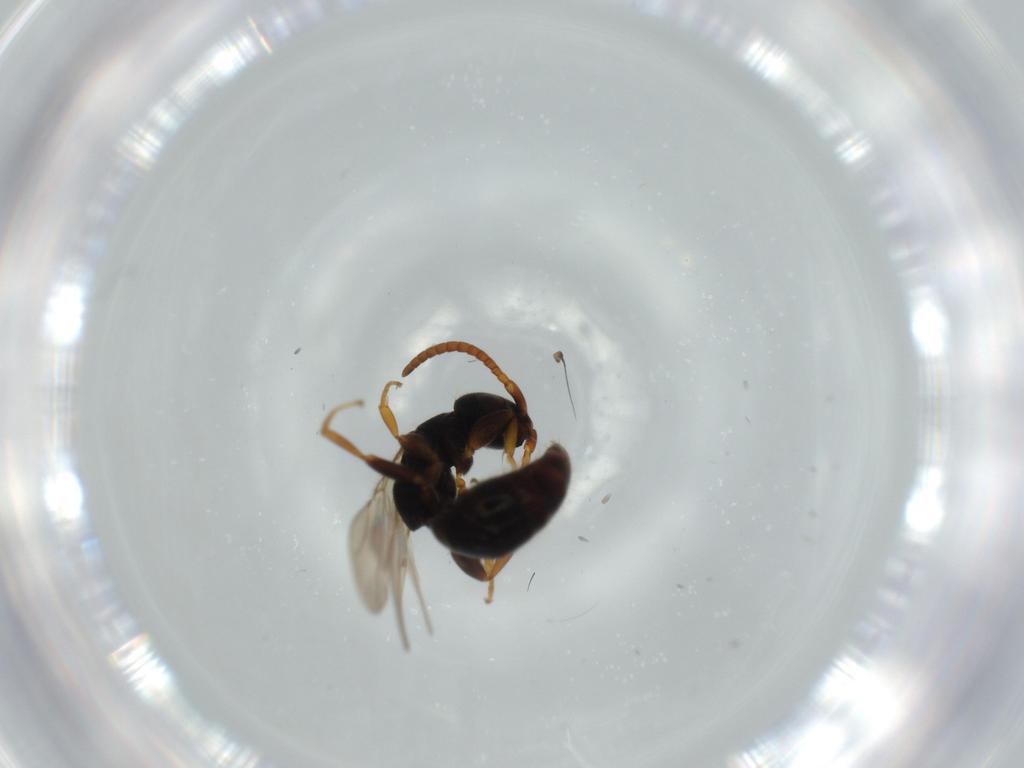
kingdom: Animalia
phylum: Arthropoda
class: Insecta
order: Hymenoptera
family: Bethylidae
